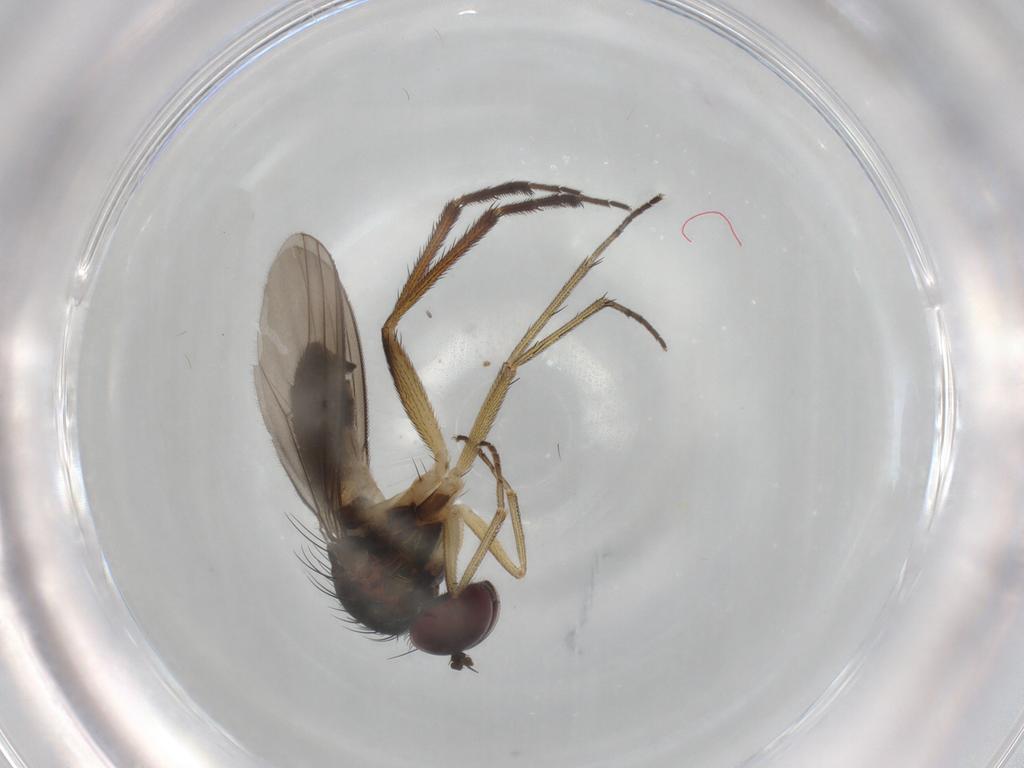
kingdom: Animalia
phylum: Arthropoda
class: Insecta
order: Diptera
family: Dolichopodidae
